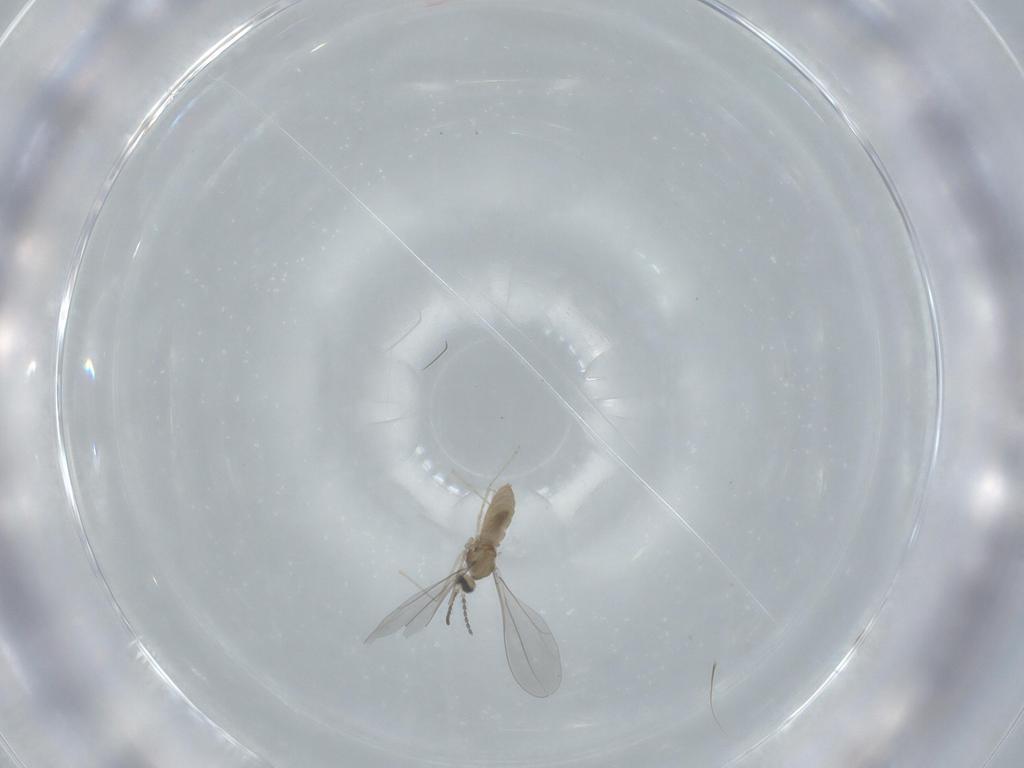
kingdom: Animalia
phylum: Arthropoda
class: Insecta
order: Diptera
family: Cecidomyiidae
